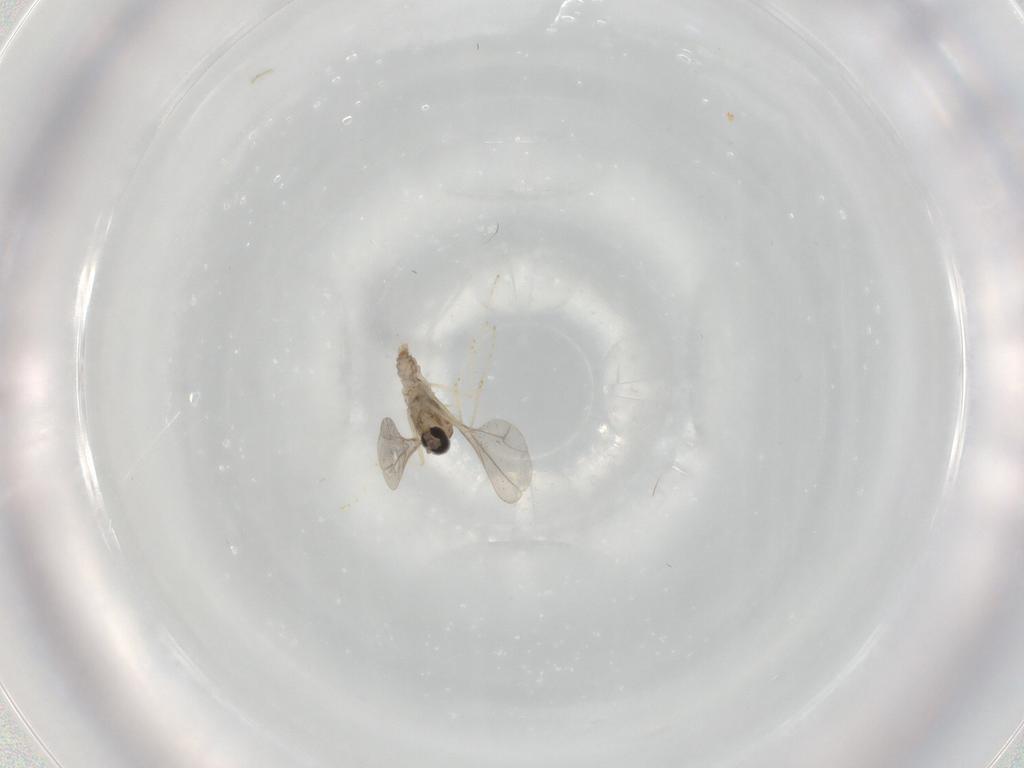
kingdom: Animalia
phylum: Arthropoda
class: Insecta
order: Diptera
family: Cecidomyiidae
